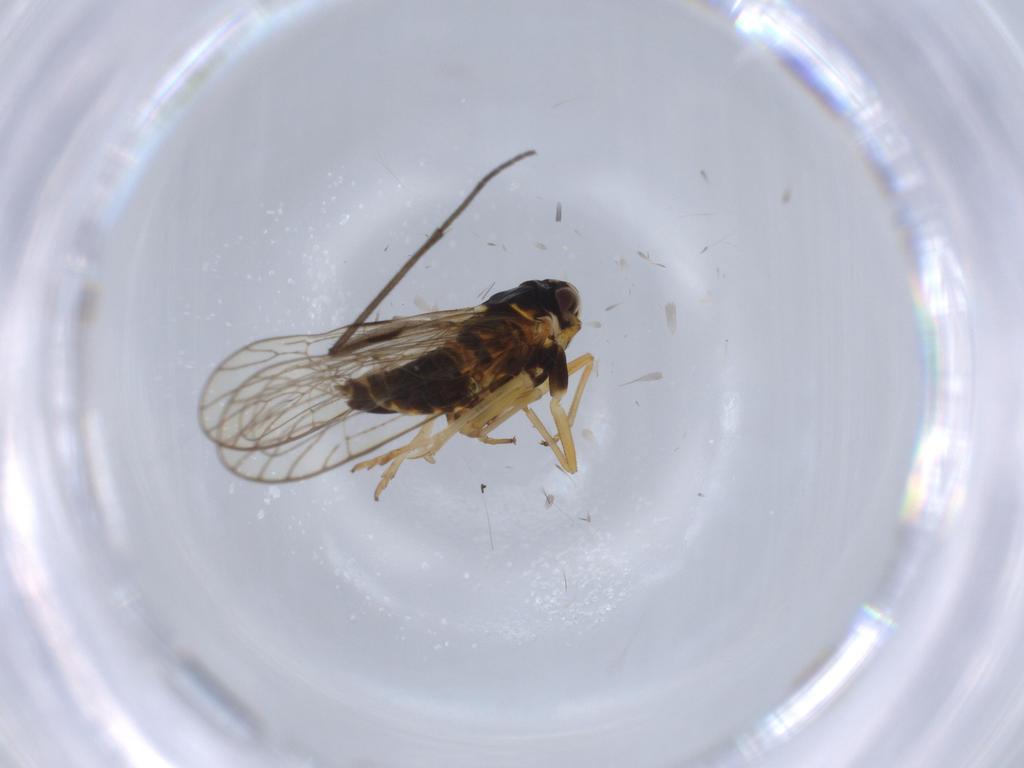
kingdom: Animalia
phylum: Arthropoda
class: Insecta
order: Hemiptera
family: Cicadellidae
